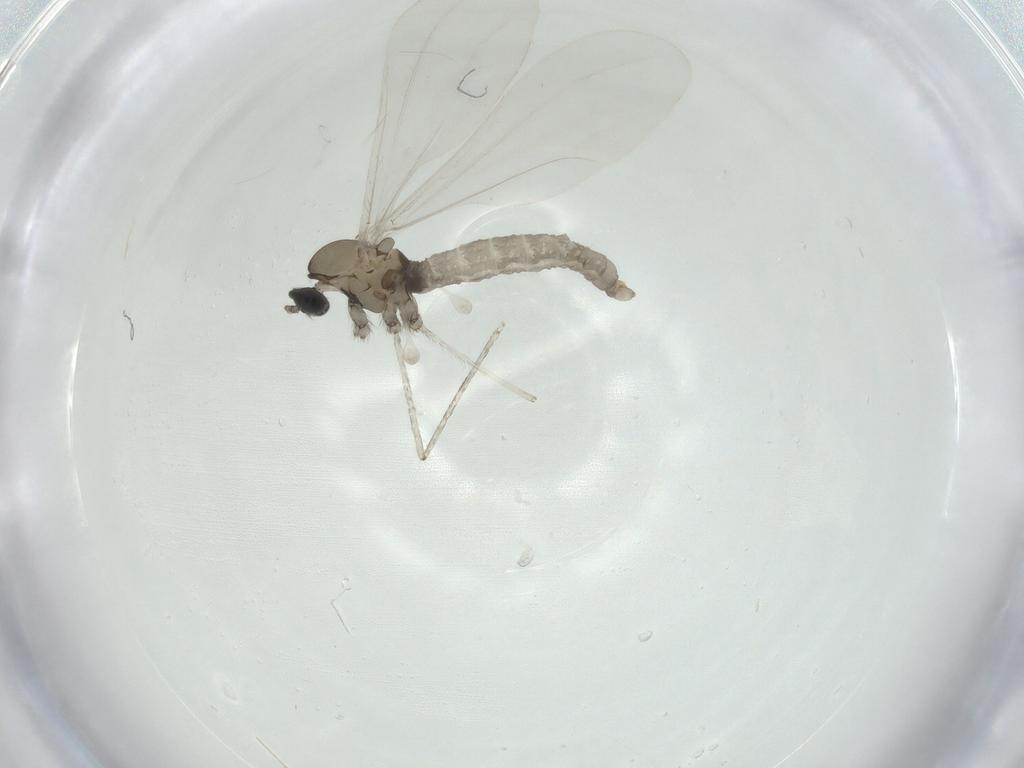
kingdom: Animalia
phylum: Arthropoda
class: Insecta
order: Diptera
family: Cecidomyiidae
